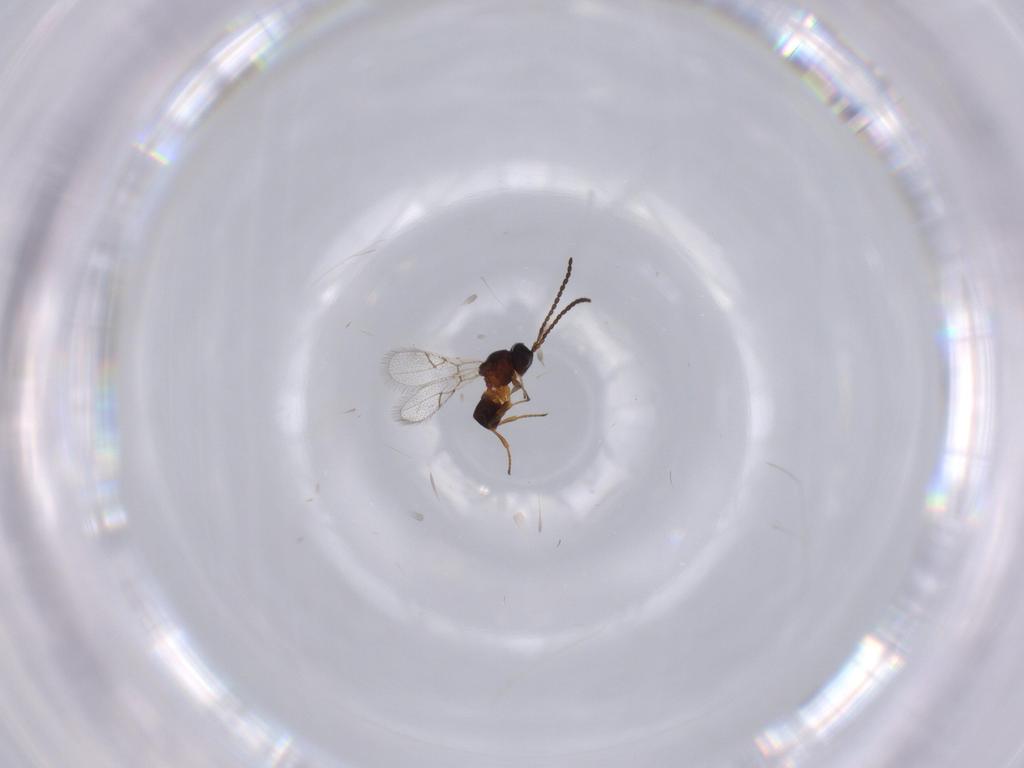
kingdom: Animalia
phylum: Arthropoda
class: Insecta
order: Hymenoptera
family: Figitidae
